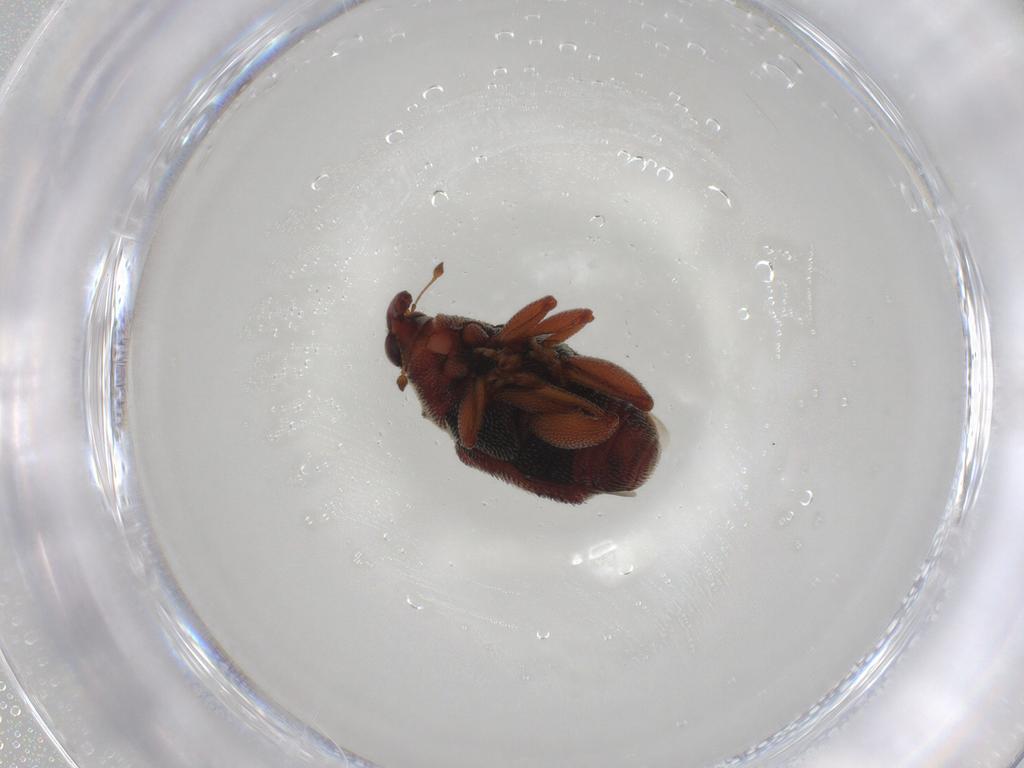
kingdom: Animalia
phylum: Arthropoda
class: Insecta
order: Coleoptera
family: Curculionidae
